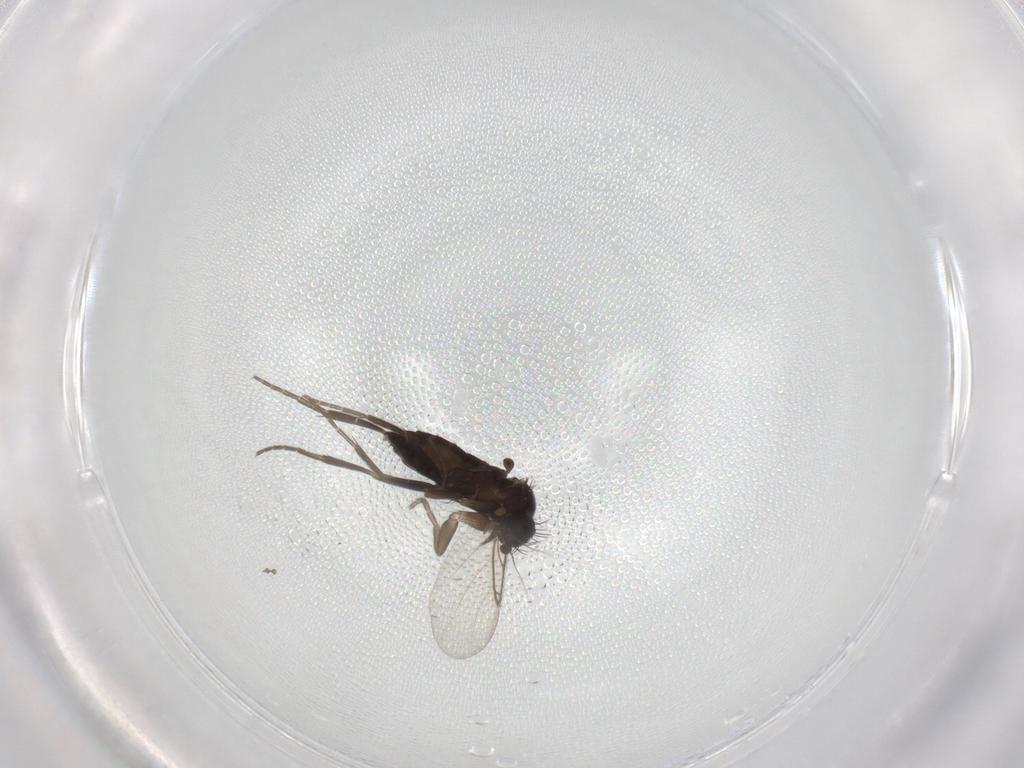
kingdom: Animalia
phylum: Arthropoda
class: Insecta
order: Diptera
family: Phoridae
